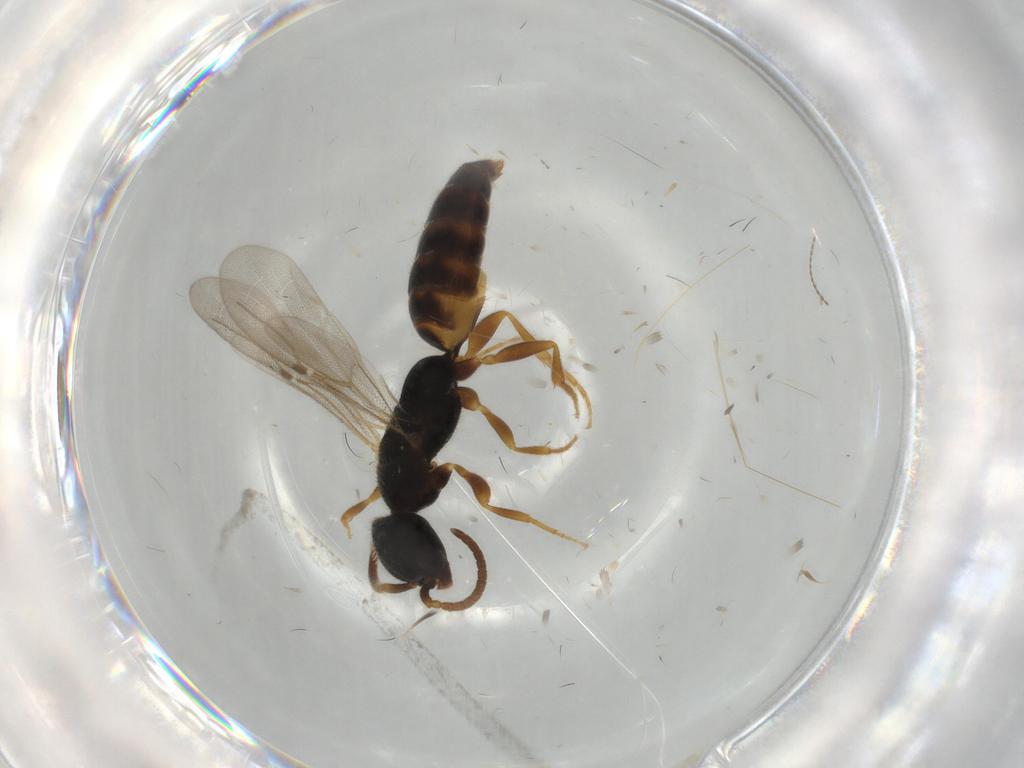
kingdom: Animalia
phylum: Arthropoda
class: Insecta
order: Hymenoptera
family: Bethylidae
